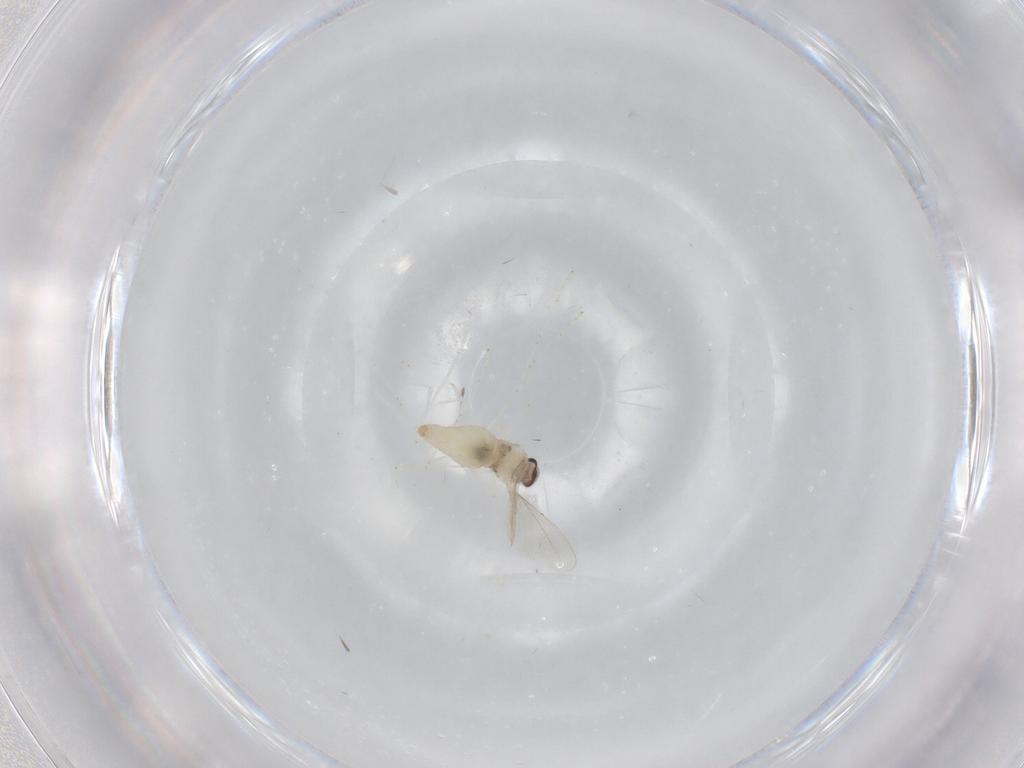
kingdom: Animalia
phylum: Arthropoda
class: Insecta
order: Diptera
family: Cecidomyiidae
